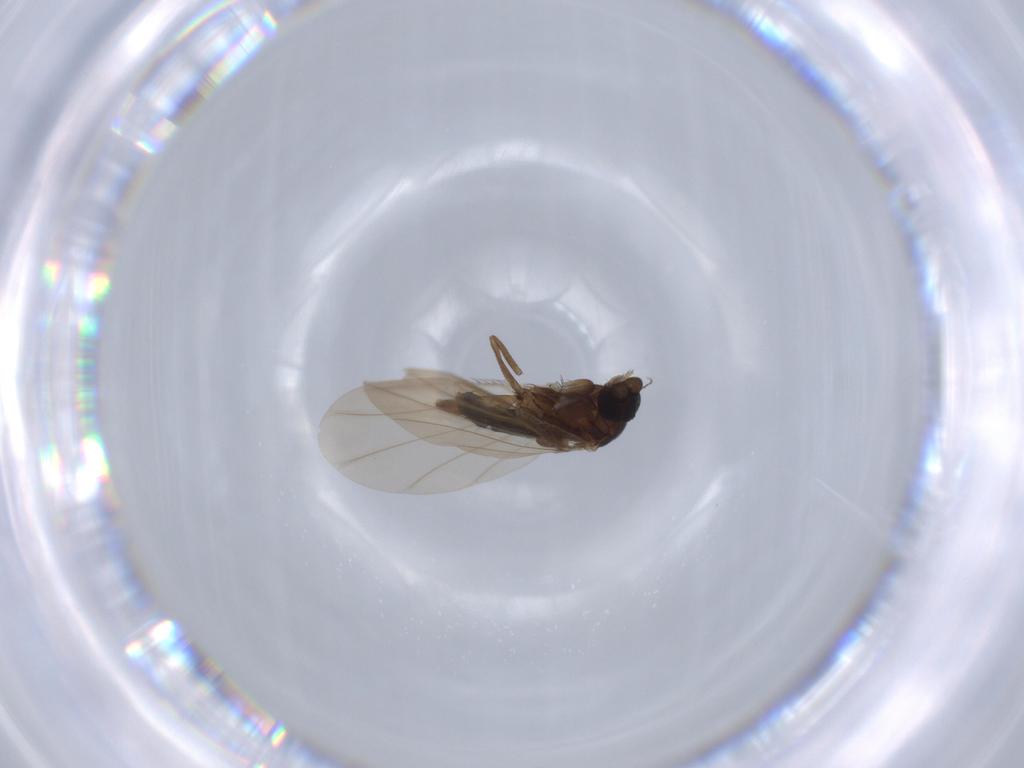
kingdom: Animalia
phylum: Arthropoda
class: Insecta
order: Diptera
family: Phoridae
